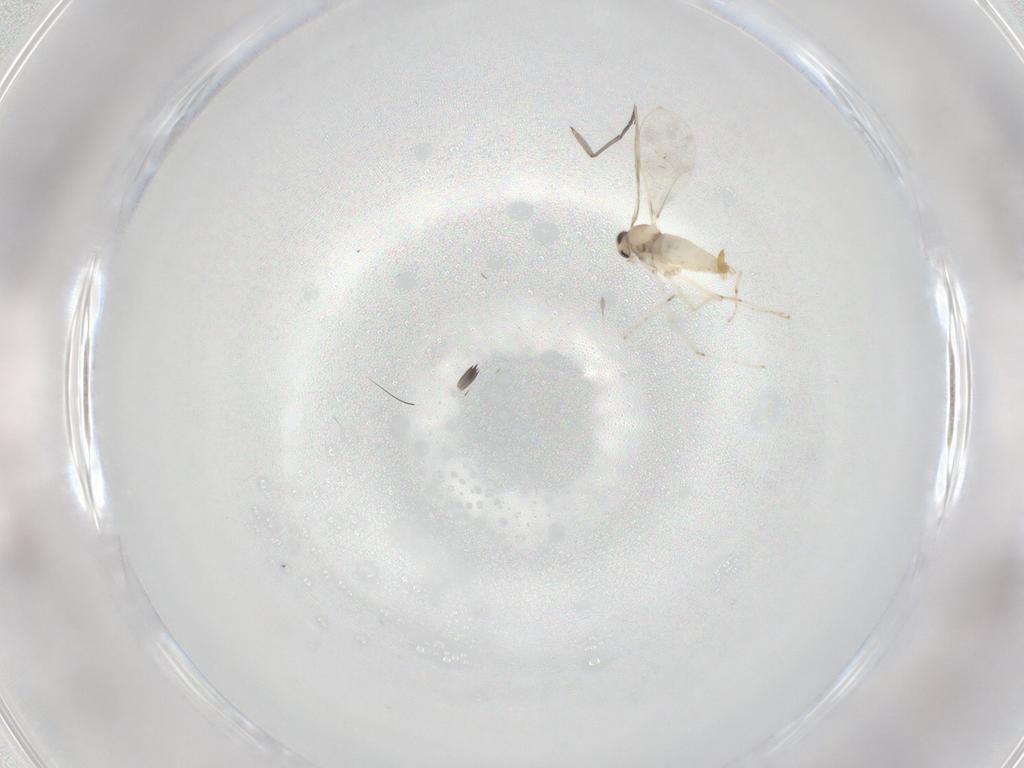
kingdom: Animalia
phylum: Arthropoda
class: Insecta
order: Diptera
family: Sciaridae
